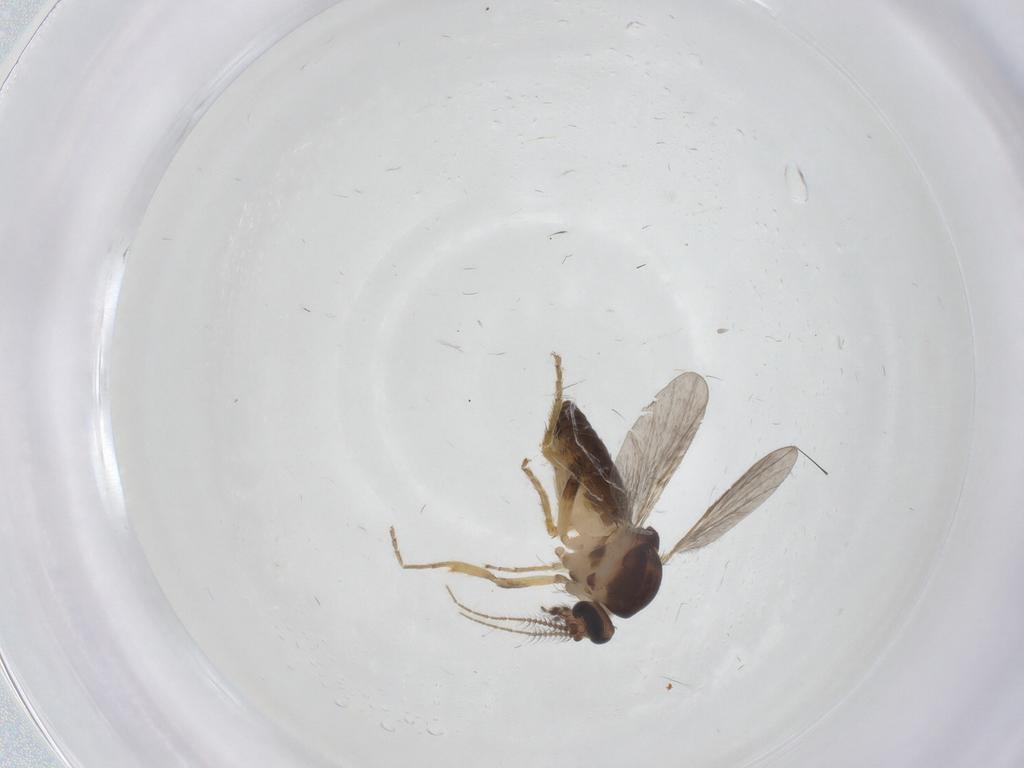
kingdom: Animalia
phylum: Arthropoda
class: Insecta
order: Diptera
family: Ceratopogonidae
